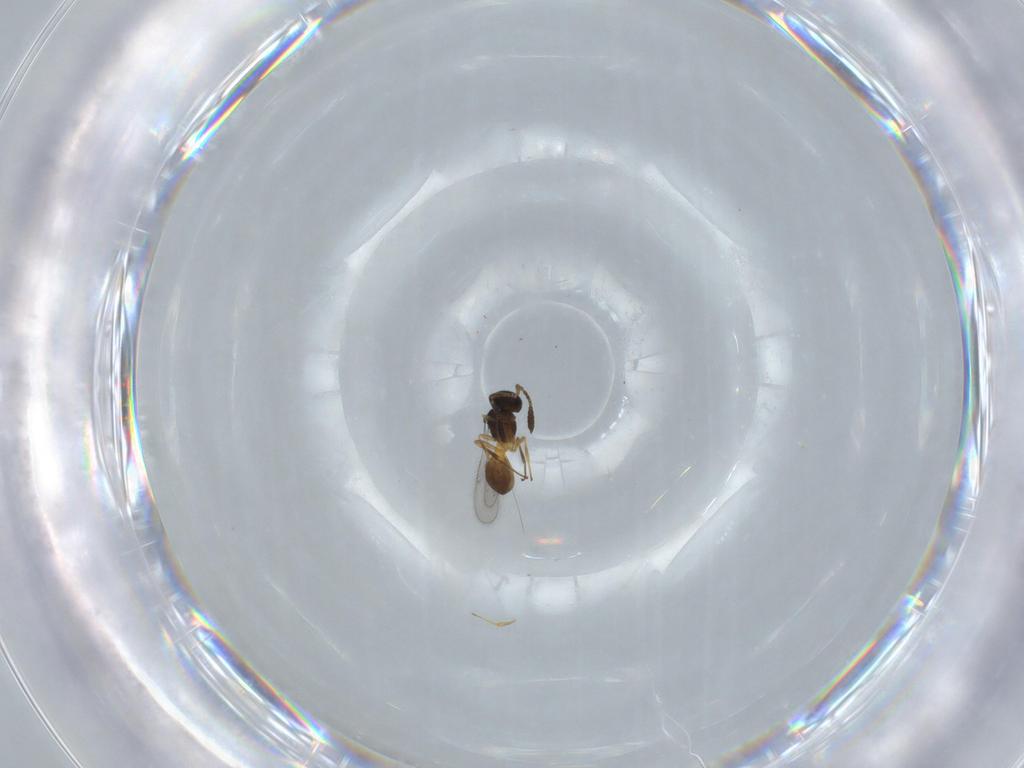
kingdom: Animalia
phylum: Arthropoda
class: Insecta
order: Hymenoptera
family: Scelionidae
